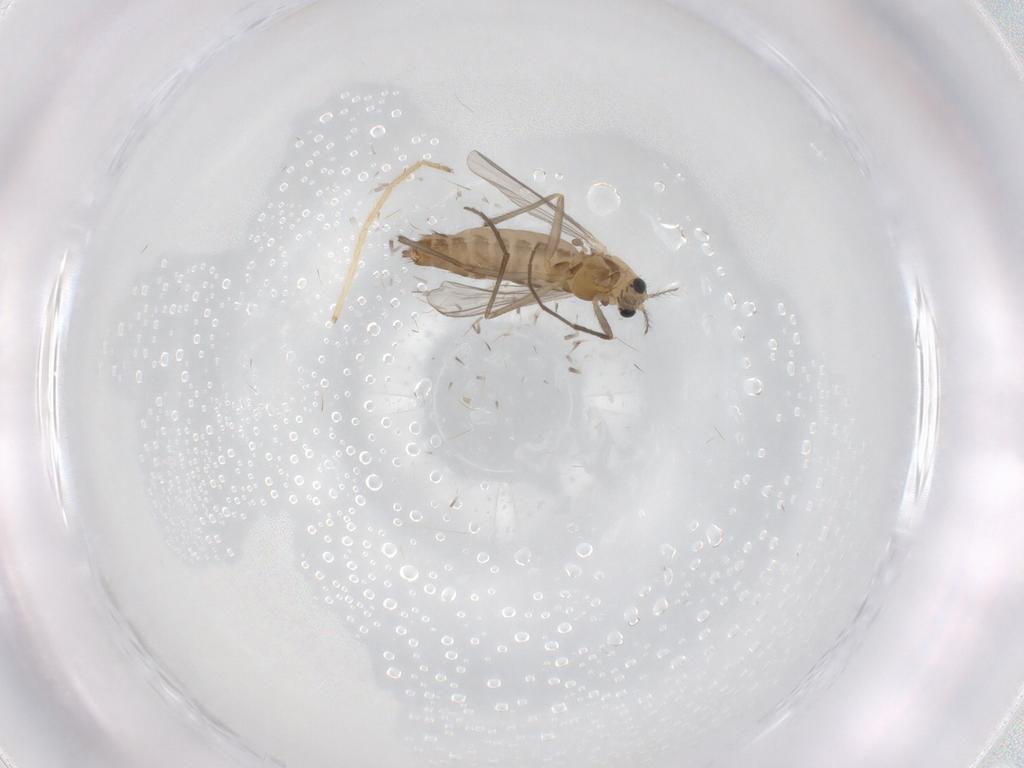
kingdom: Animalia
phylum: Arthropoda
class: Insecta
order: Diptera
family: Chironomidae
